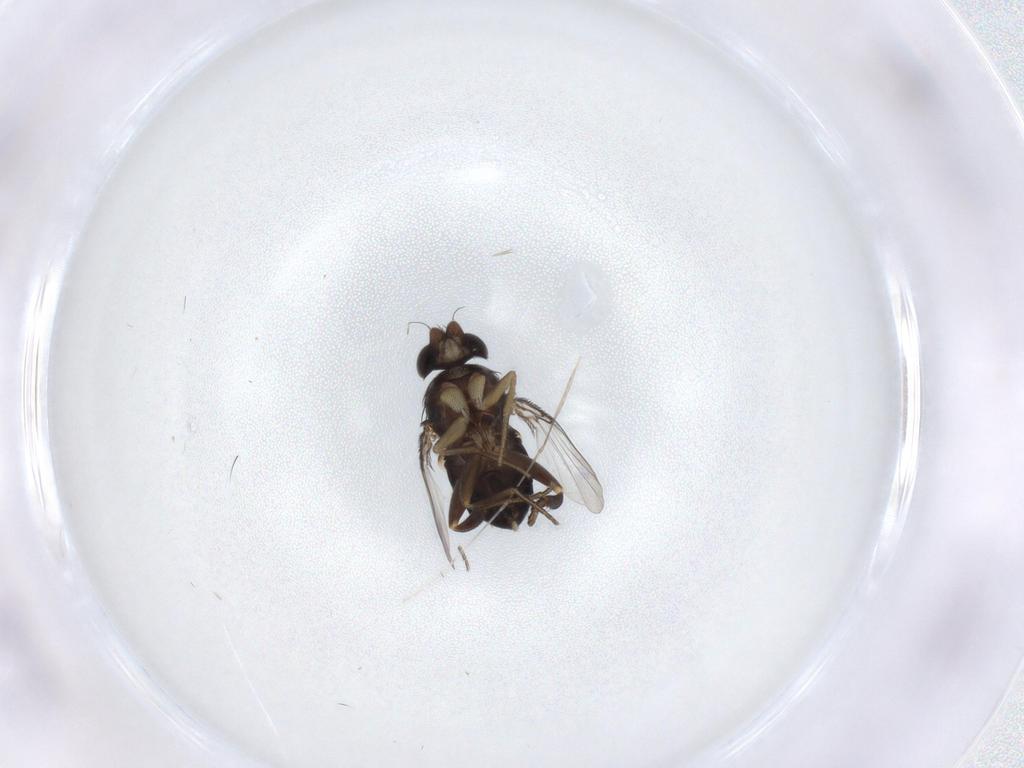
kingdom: Animalia
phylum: Arthropoda
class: Insecta
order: Diptera
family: Phoridae
